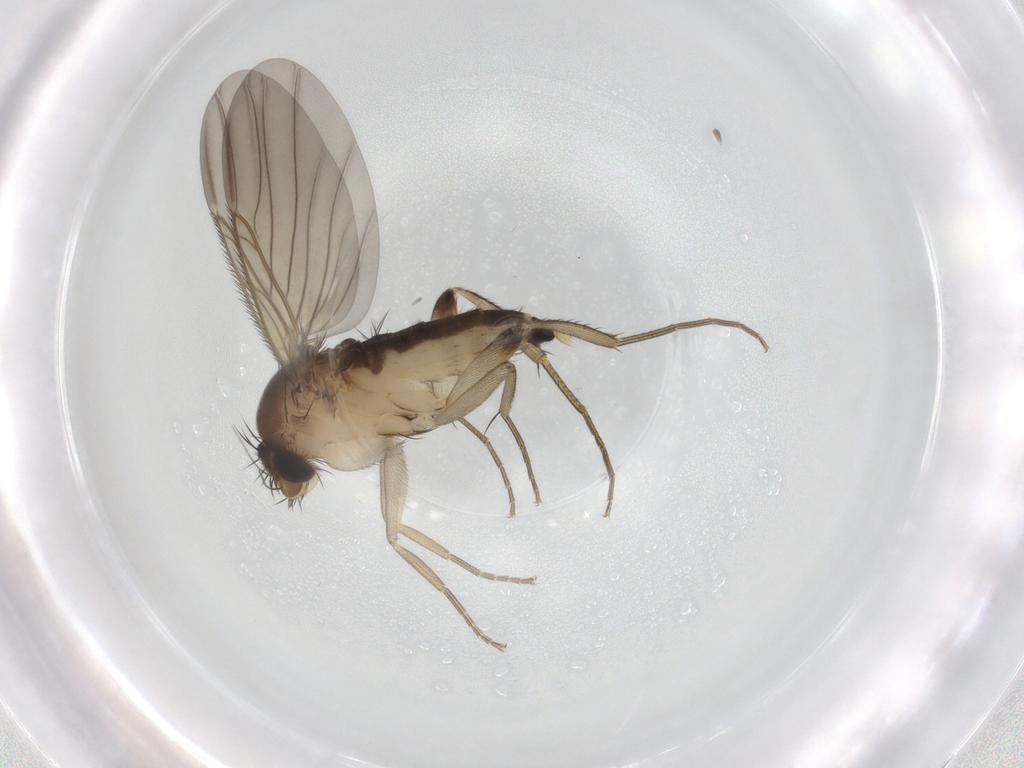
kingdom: Animalia
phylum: Arthropoda
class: Insecta
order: Diptera
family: Phoridae
